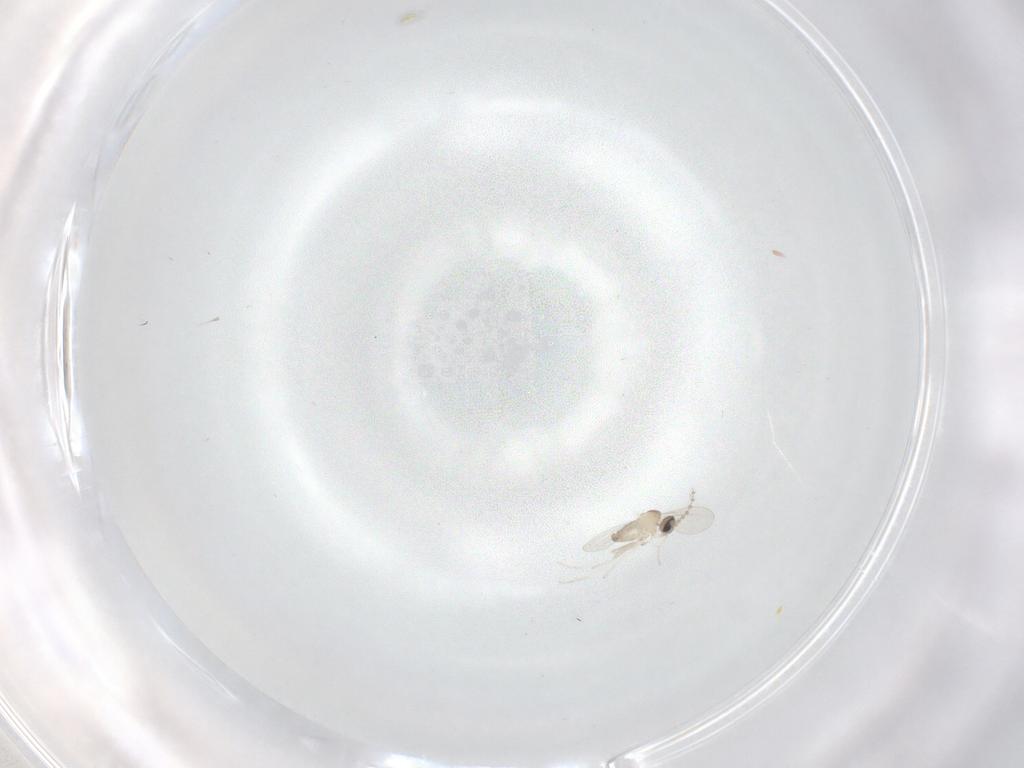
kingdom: Animalia
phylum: Arthropoda
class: Insecta
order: Diptera
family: Cecidomyiidae
